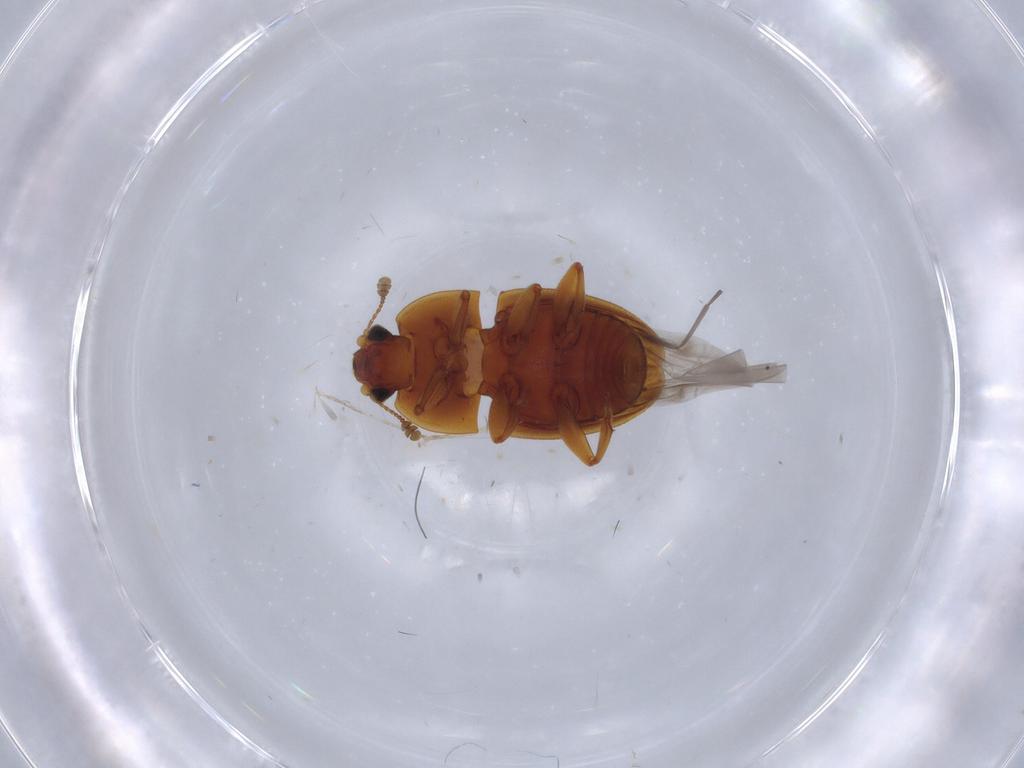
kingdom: Animalia
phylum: Arthropoda
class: Insecta
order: Coleoptera
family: Nitidulidae
